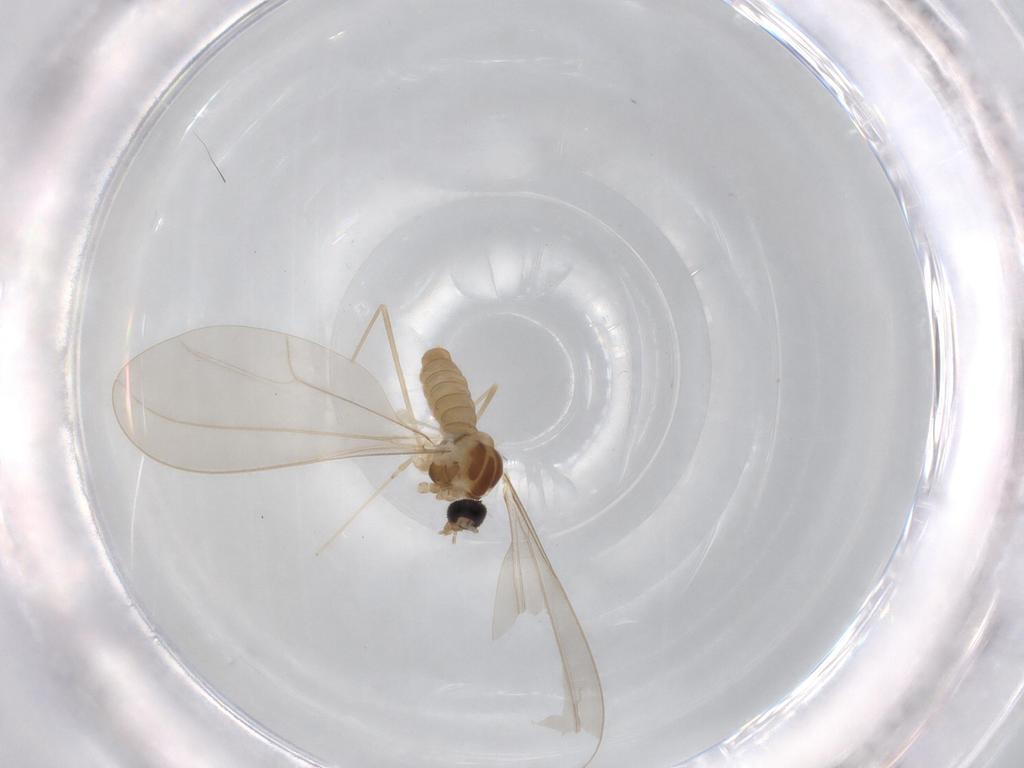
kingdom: Animalia
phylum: Arthropoda
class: Insecta
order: Diptera
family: Cecidomyiidae
